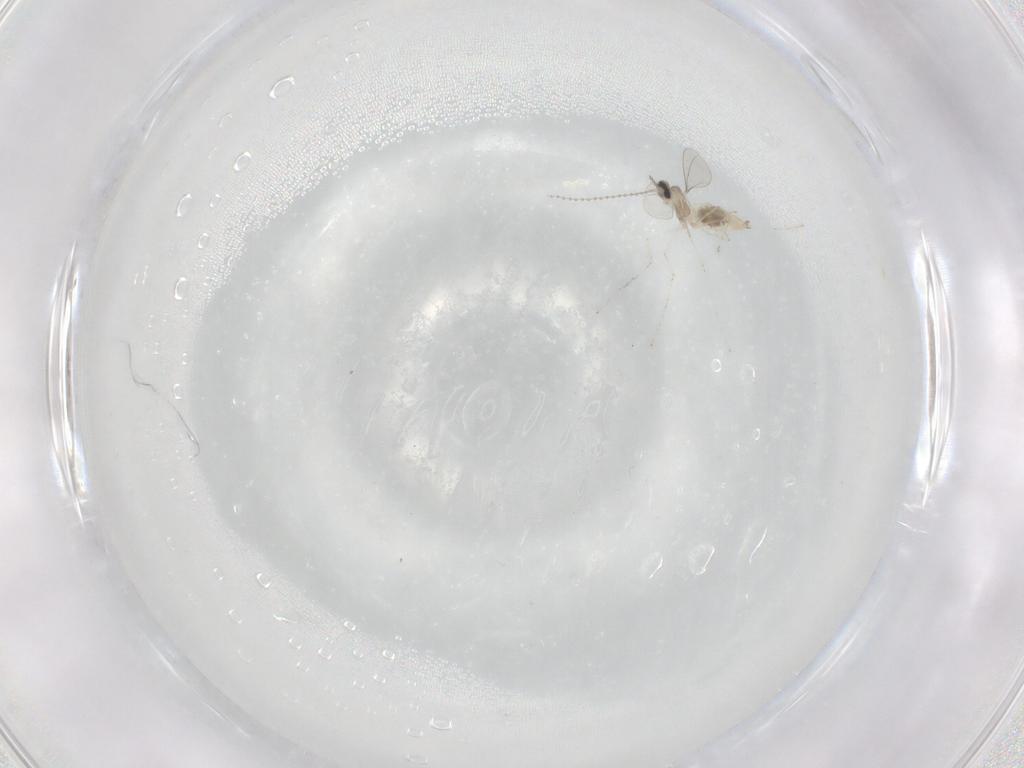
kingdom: Animalia
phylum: Arthropoda
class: Insecta
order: Diptera
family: Cecidomyiidae
